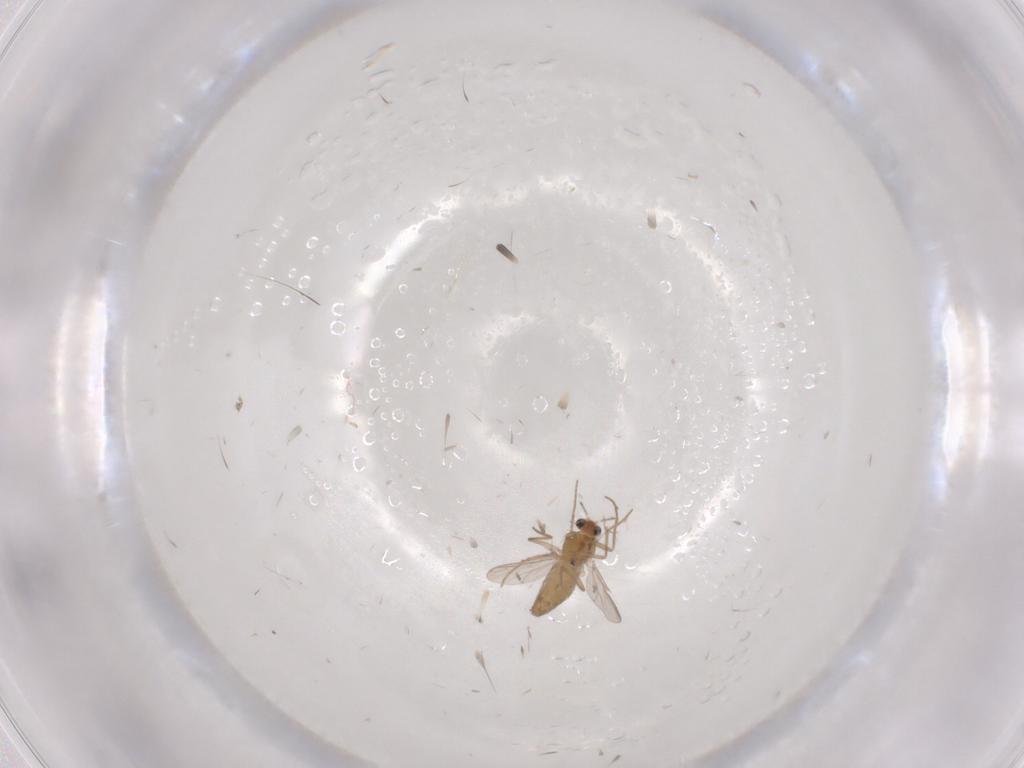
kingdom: Animalia
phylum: Arthropoda
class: Insecta
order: Diptera
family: Chironomidae
